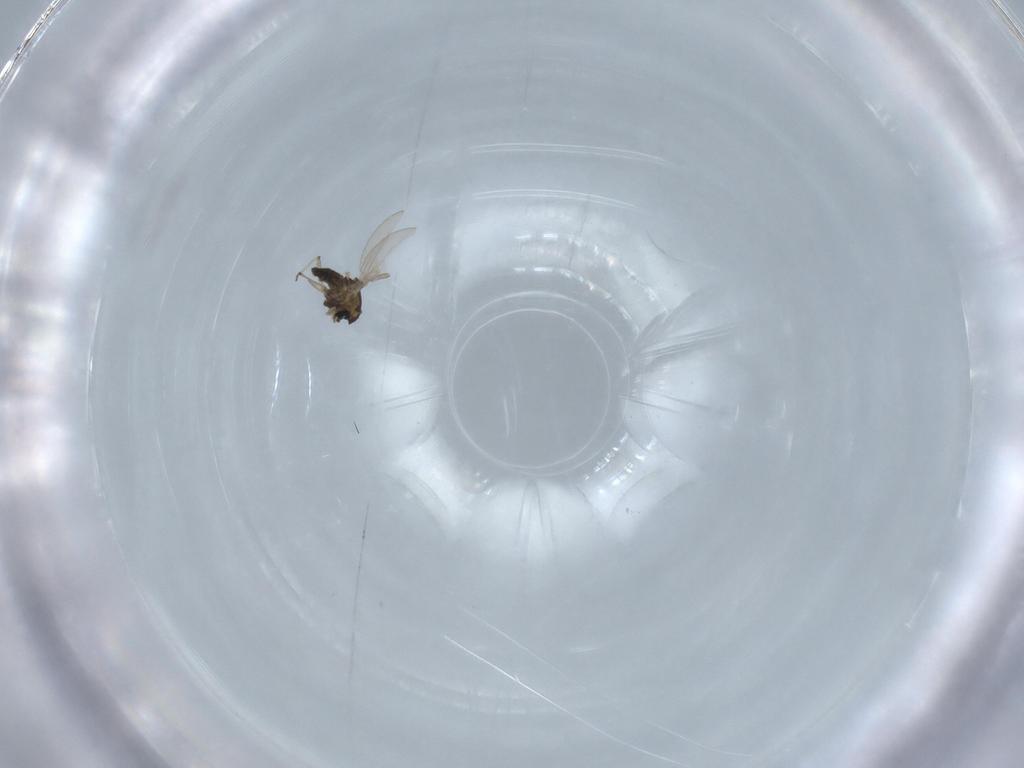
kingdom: Animalia
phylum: Arthropoda
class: Insecta
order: Diptera
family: Chironomidae
